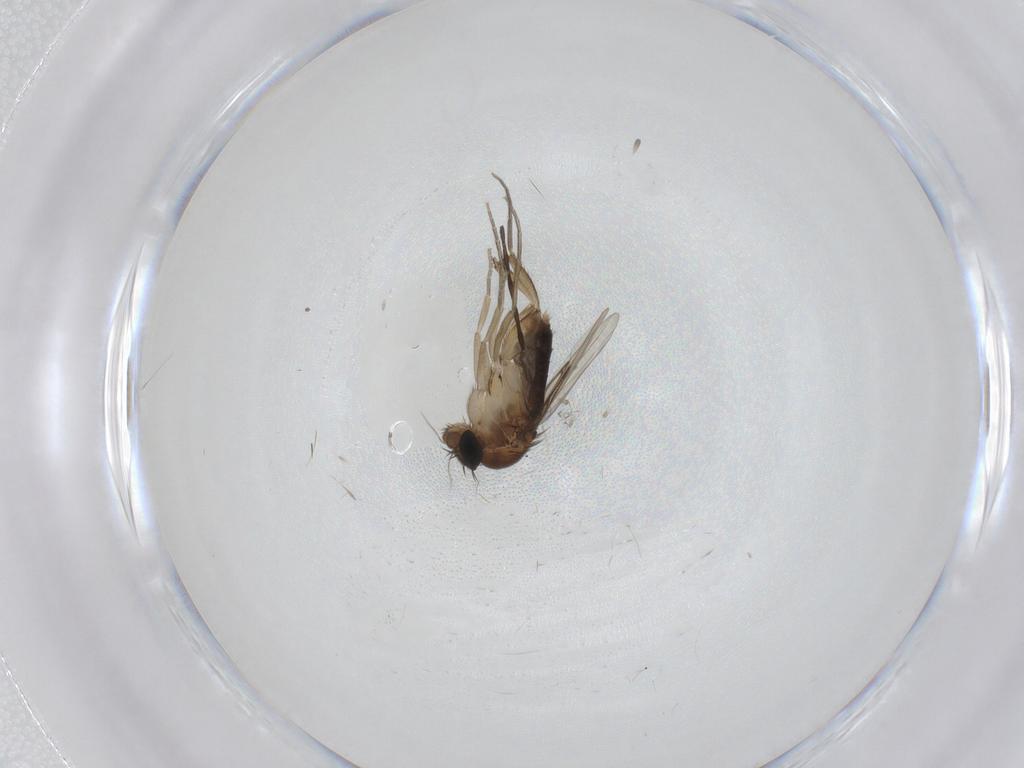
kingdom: Animalia
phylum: Arthropoda
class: Insecta
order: Diptera
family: Phoridae
